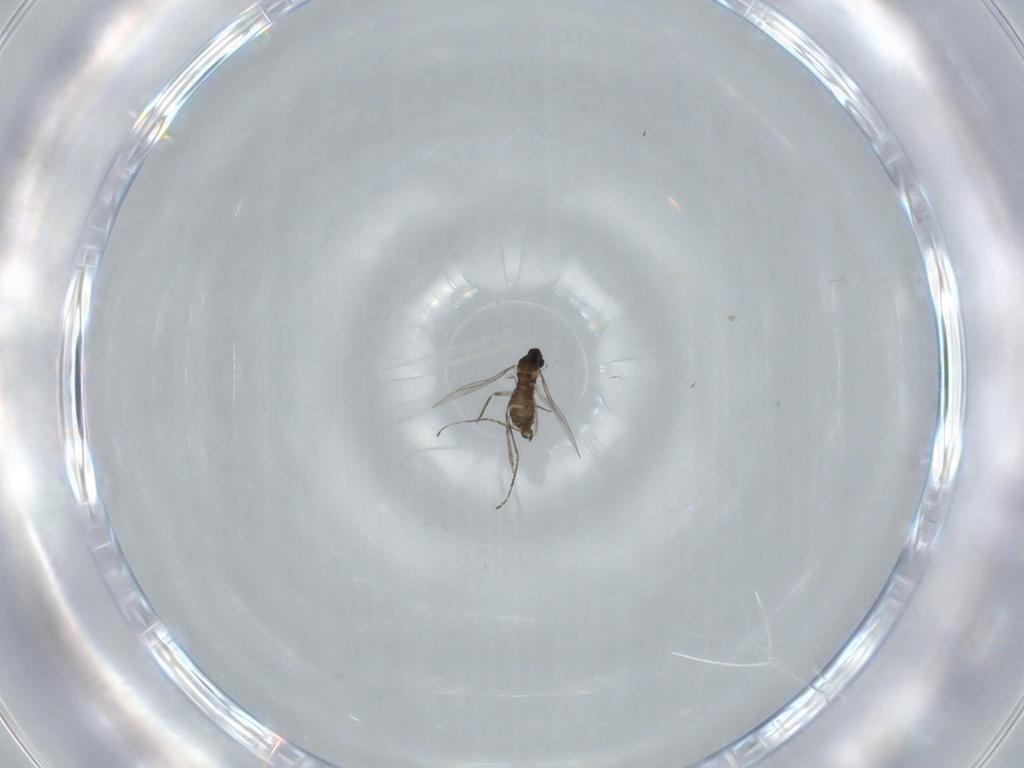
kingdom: Animalia
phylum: Arthropoda
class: Insecta
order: Diptera
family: Cecidomyiidae
